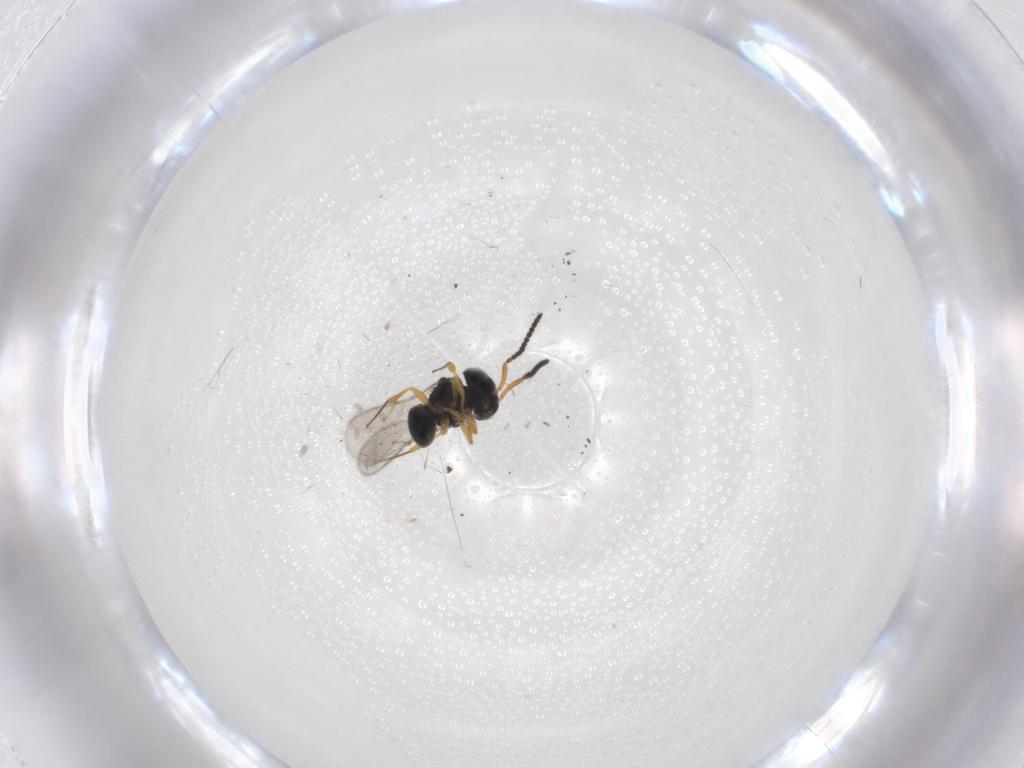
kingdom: Animalia
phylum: Arthropoda
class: Insecta
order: Hymenoptera
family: Scelionidae
